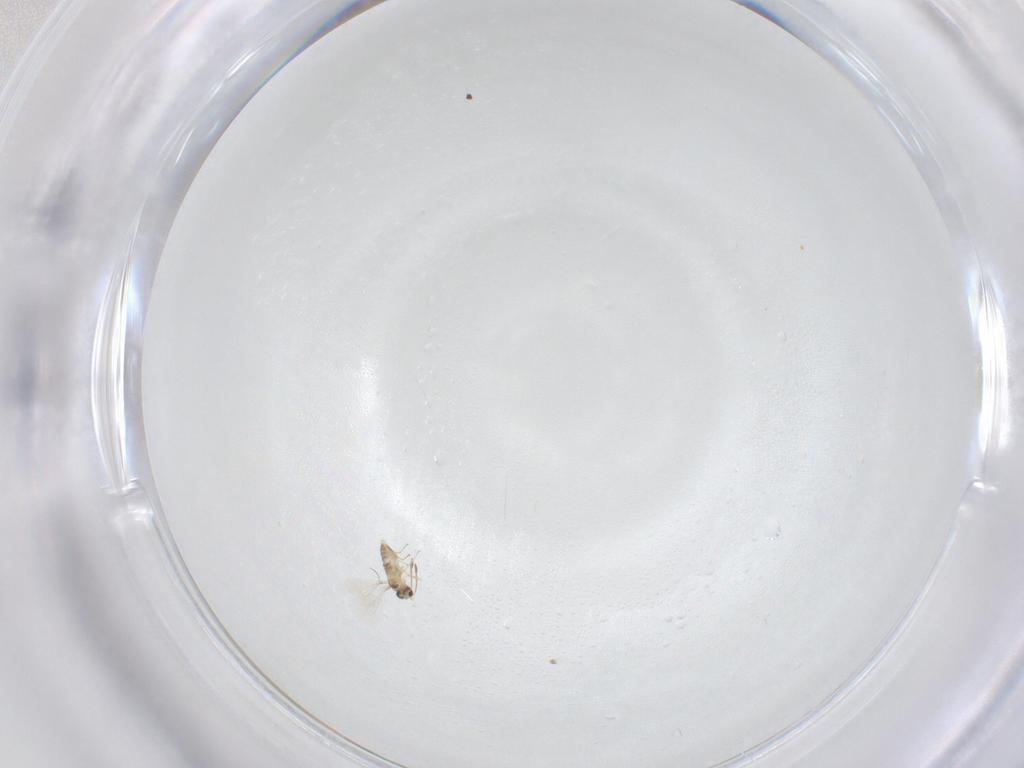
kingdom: Animalia
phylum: Arthropoda
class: Insecta
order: Hymenoptera
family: Mymaridae
